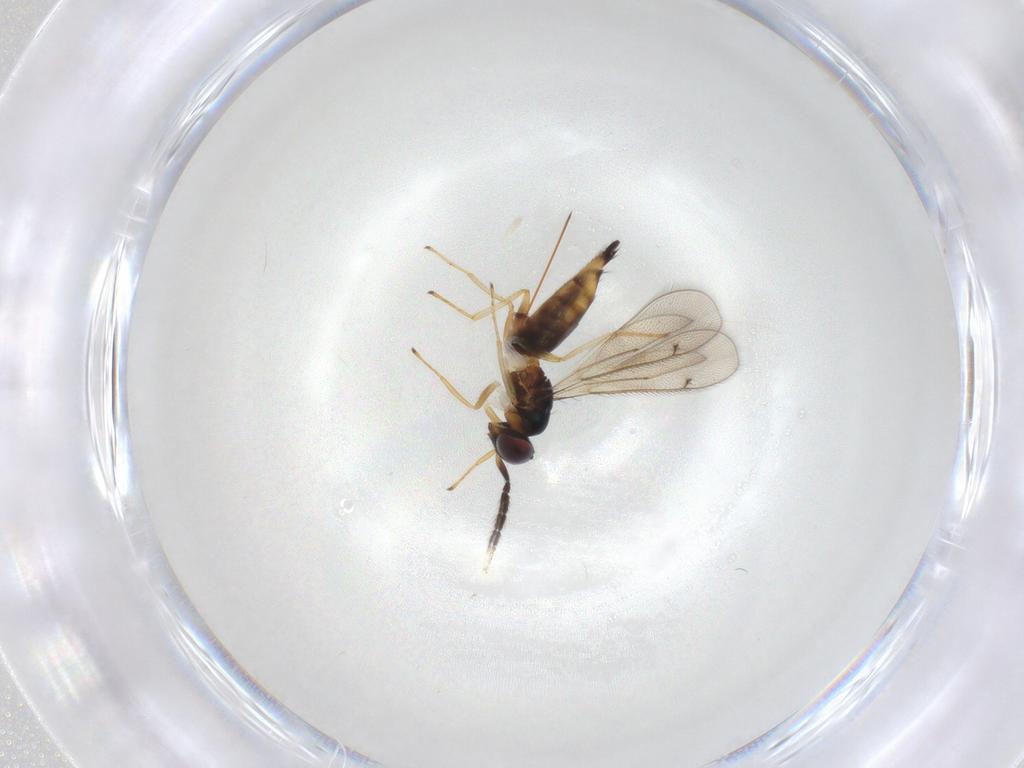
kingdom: Animalia
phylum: Arthropoda
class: Insecta
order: Hymenoptera
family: Eulophidae
